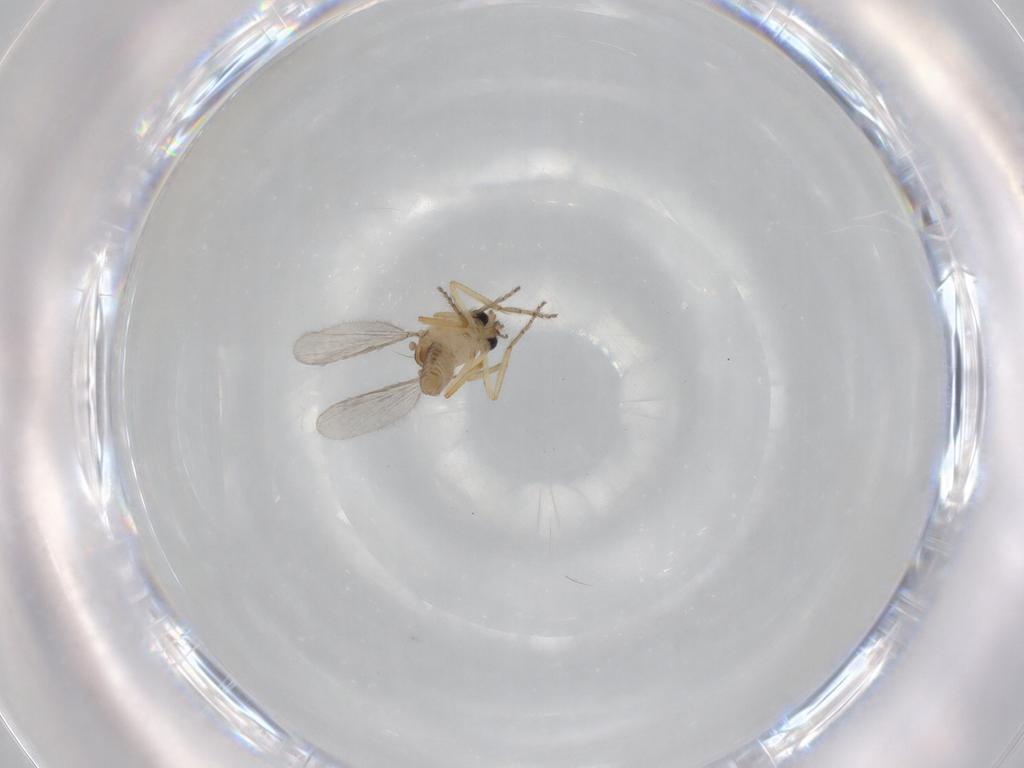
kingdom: Animalia
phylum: Arthropoda
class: Insecta
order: Diptera
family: Ceratopogonidae
